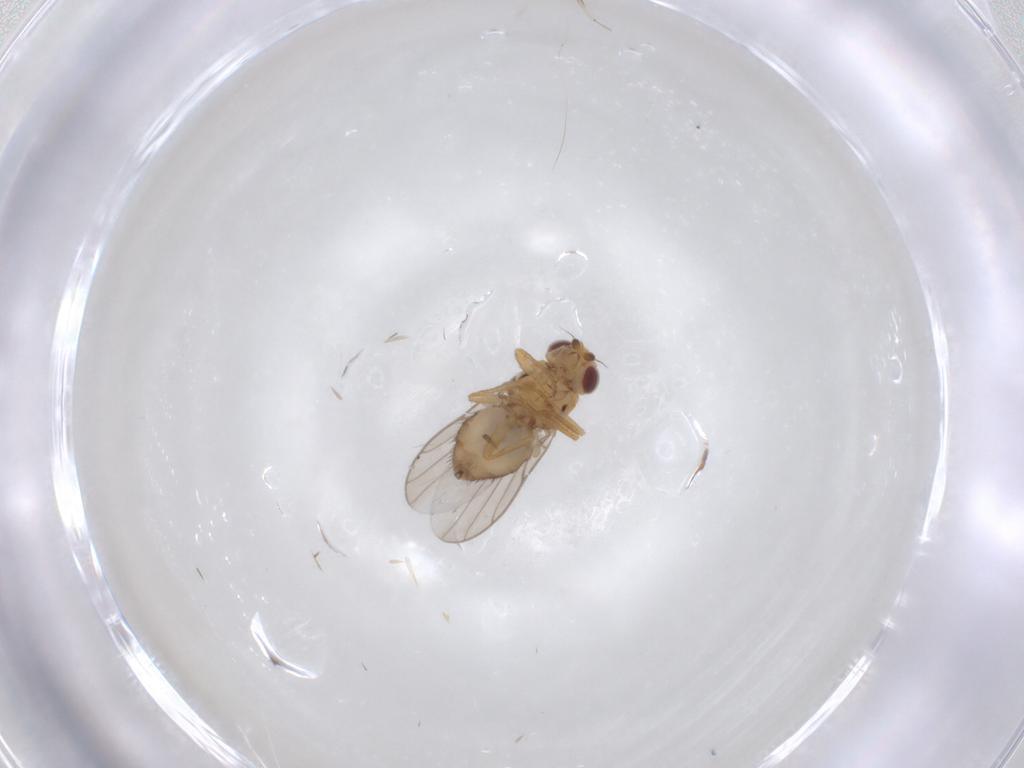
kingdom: Animalia
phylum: Arthropoda
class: Insecta
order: Diptera
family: Chloropidae
